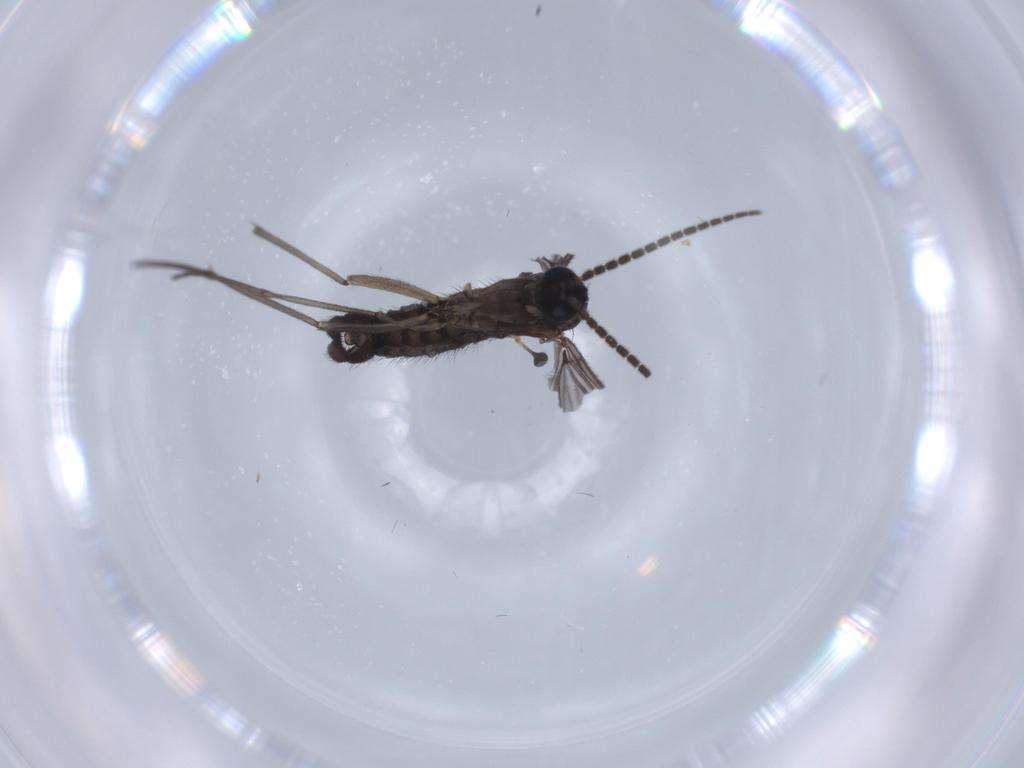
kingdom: Animalia
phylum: Arthropoda
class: Insecta
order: Diptera
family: Sciaridae
